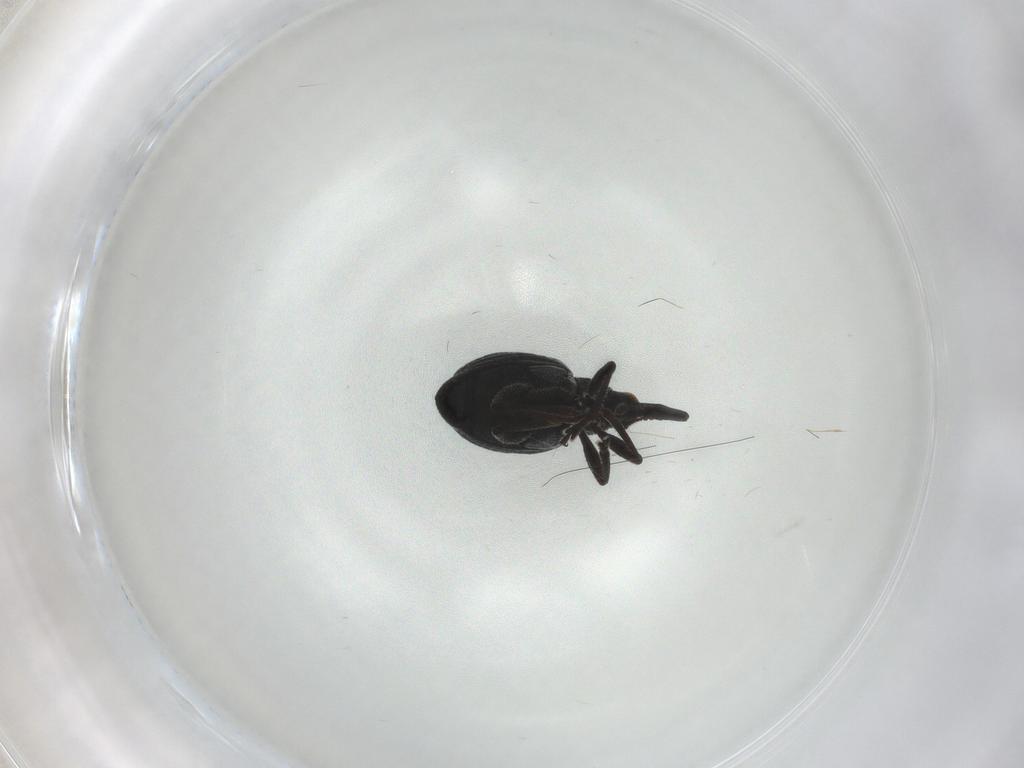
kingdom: Animalia
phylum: Arthropoda
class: Insecta
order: Coleoptera
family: Brentidae
